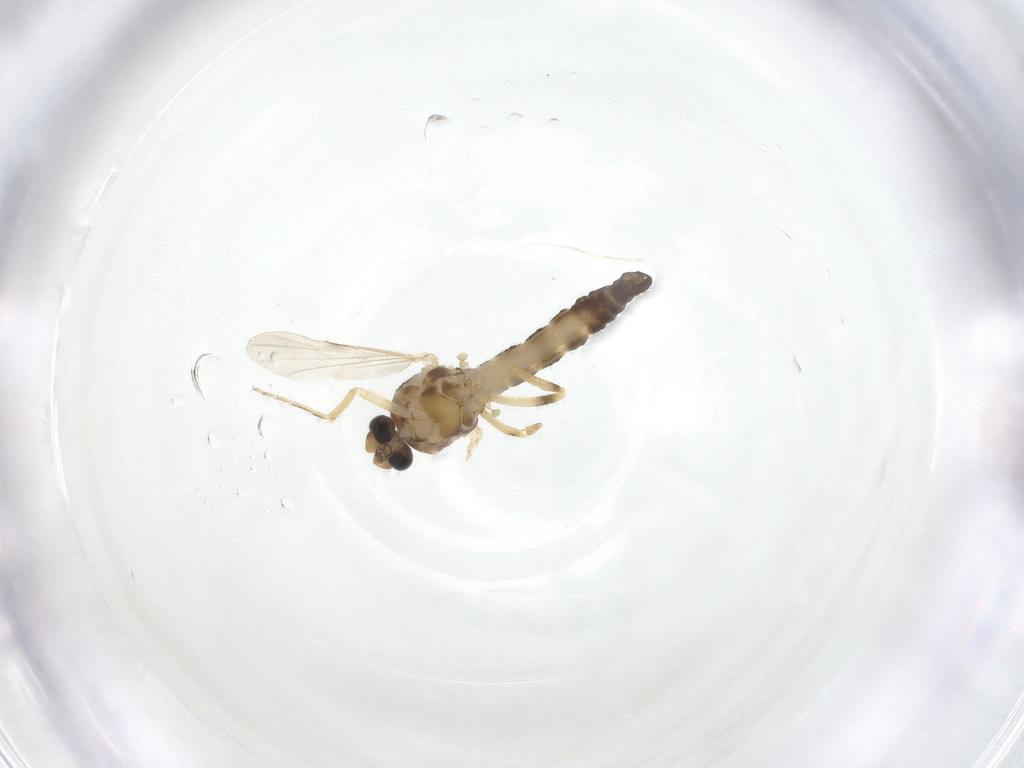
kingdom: Animalia
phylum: Arthropoda
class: Insecta
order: Diptera
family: Ceratopogonidae
